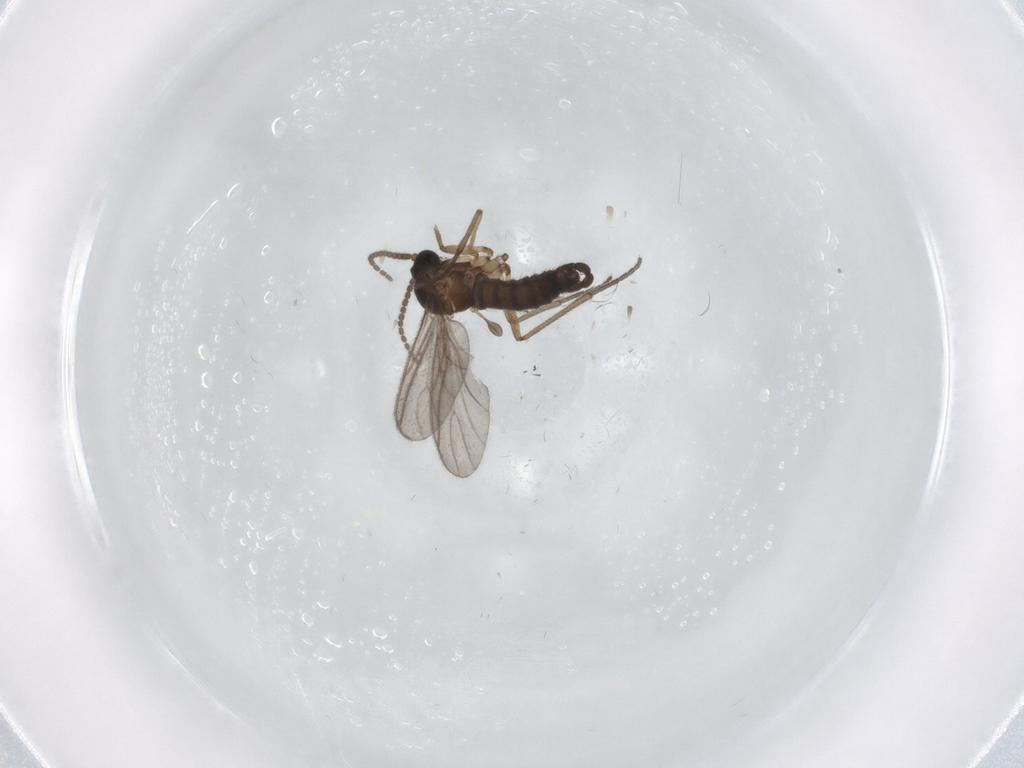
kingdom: Animalia
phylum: Arthropoda
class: Insecta
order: Diptera
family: Sciaridae
